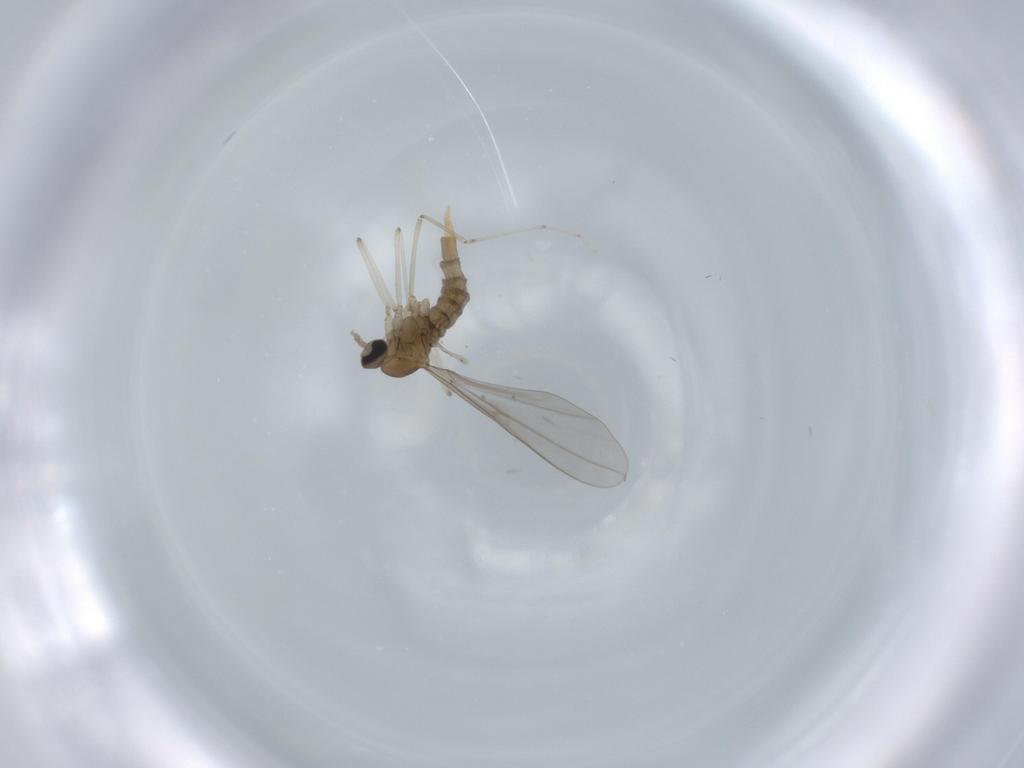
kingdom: Animalia
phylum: Arthropoda
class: Insecta
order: Diptera
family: Cecidomyiidae
